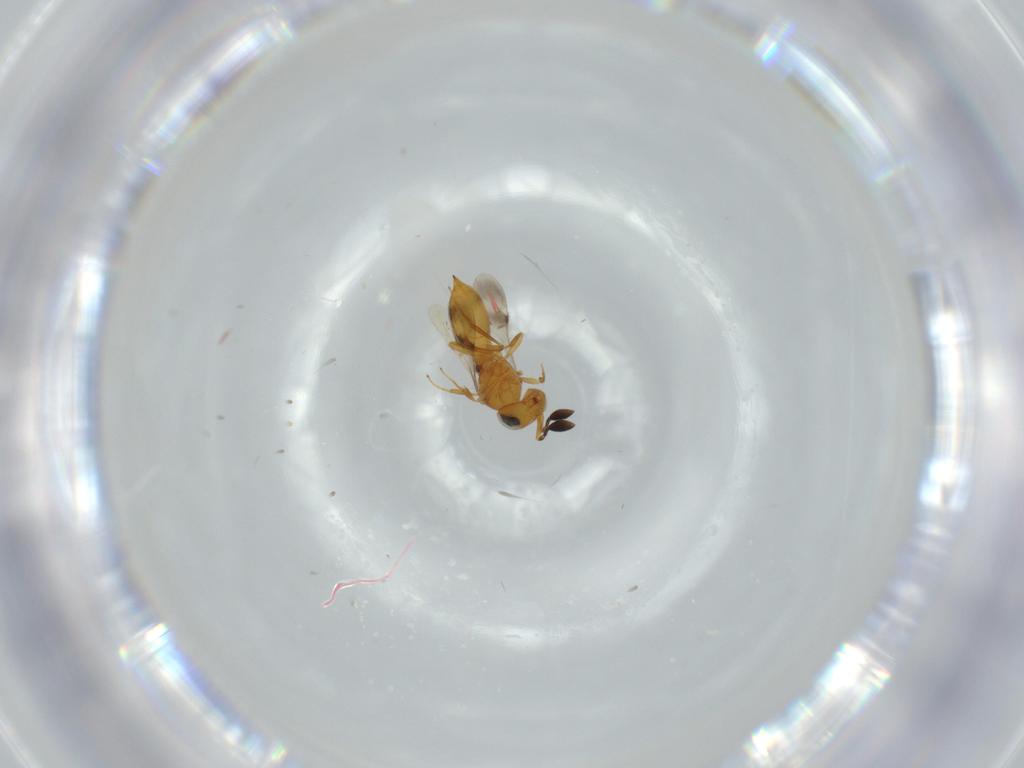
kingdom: Animalia
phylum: Arthropoda
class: Insecta
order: Hymenoptera
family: Scelionidae
